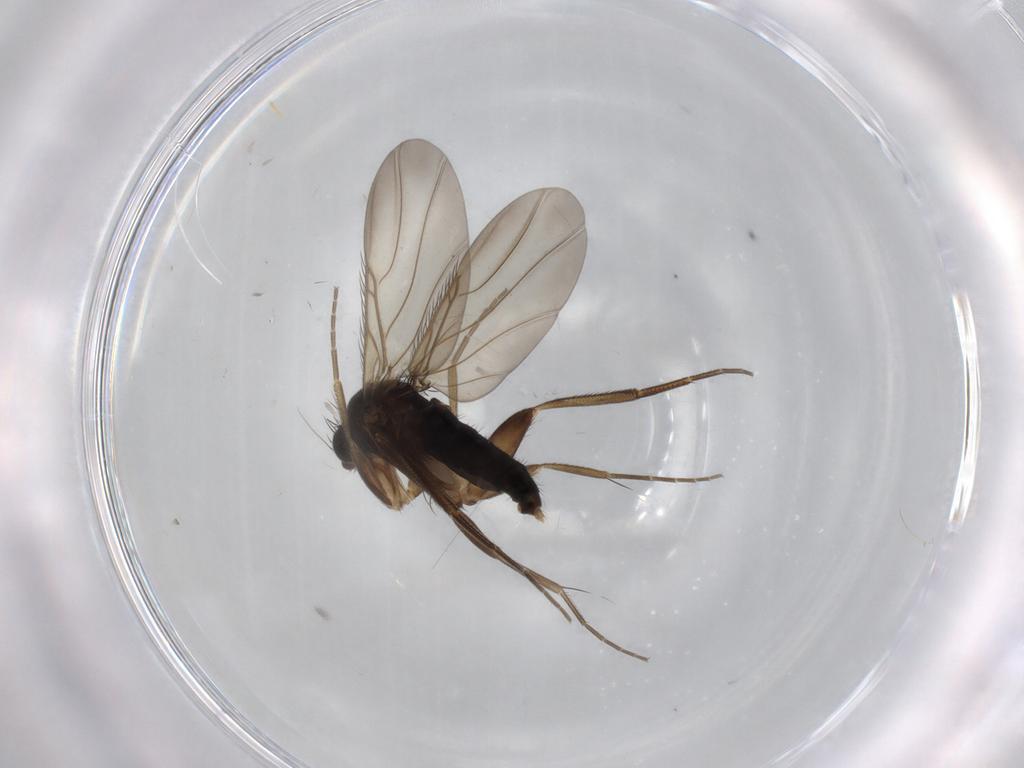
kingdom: Animalia
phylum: Arthropoda
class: Insecta
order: Diptera
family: Phoridae
